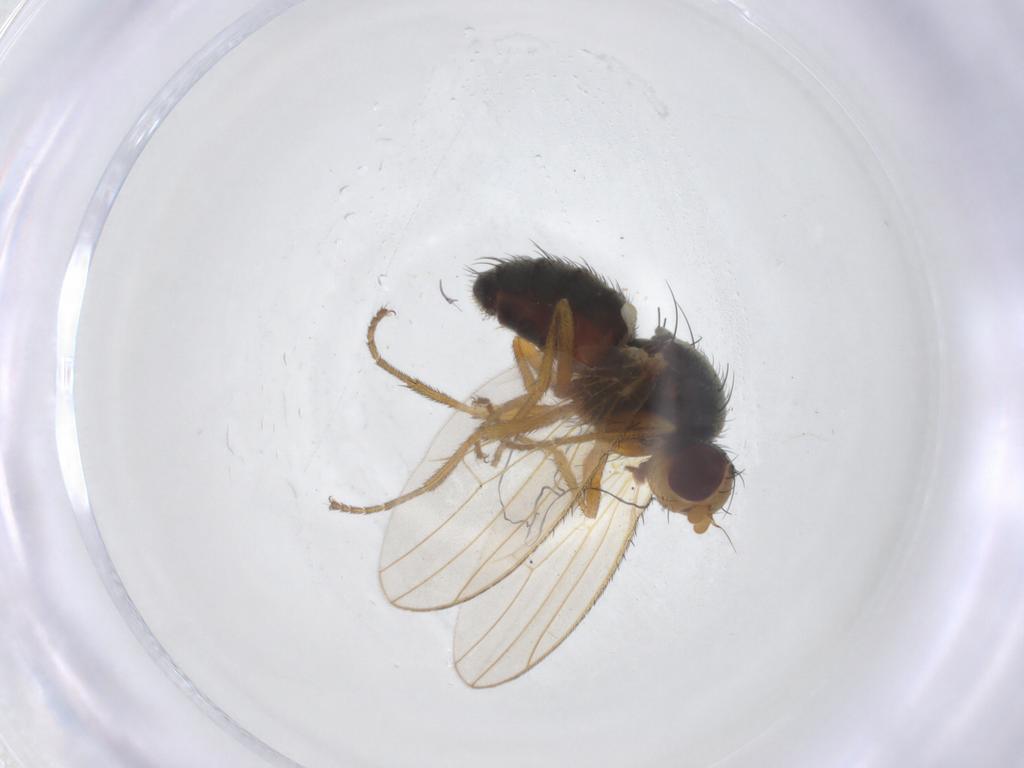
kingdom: Animalia
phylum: Arthropoda
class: Insecta
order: Diptera
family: Heleomyzidae
